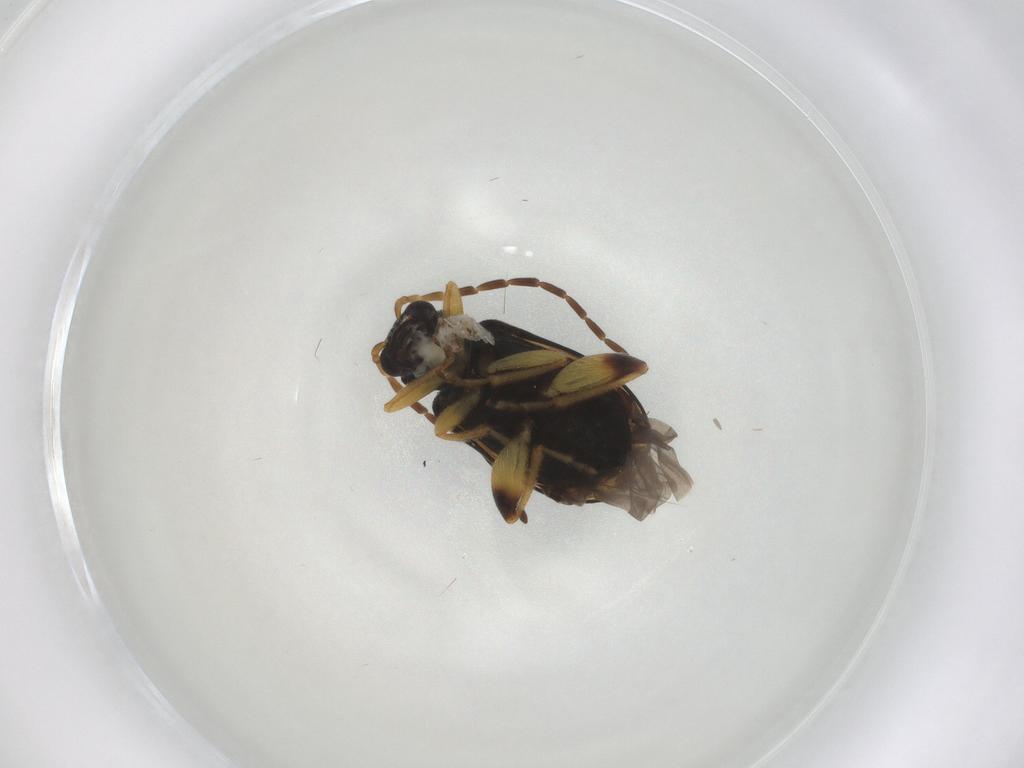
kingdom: Animalia
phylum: Arthropoda
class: Insecta
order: Coleoptera
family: Chrysomelidae
